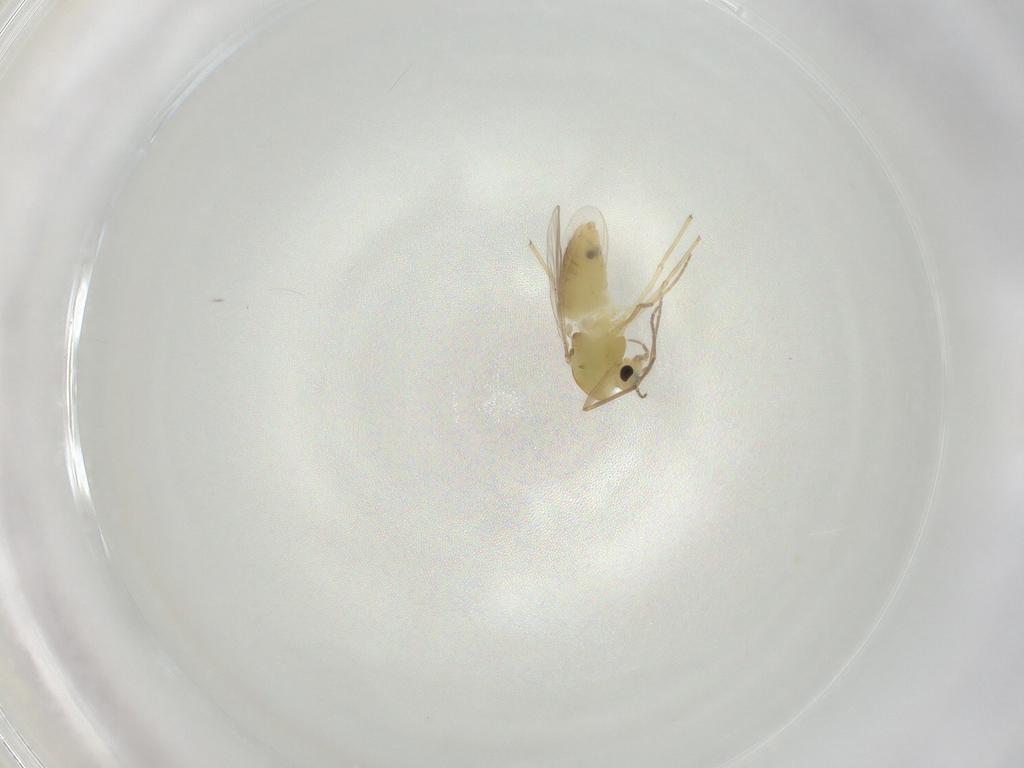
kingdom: Animalia
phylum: Arthropoda
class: Insecta
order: Diptera
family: Chironomidae
